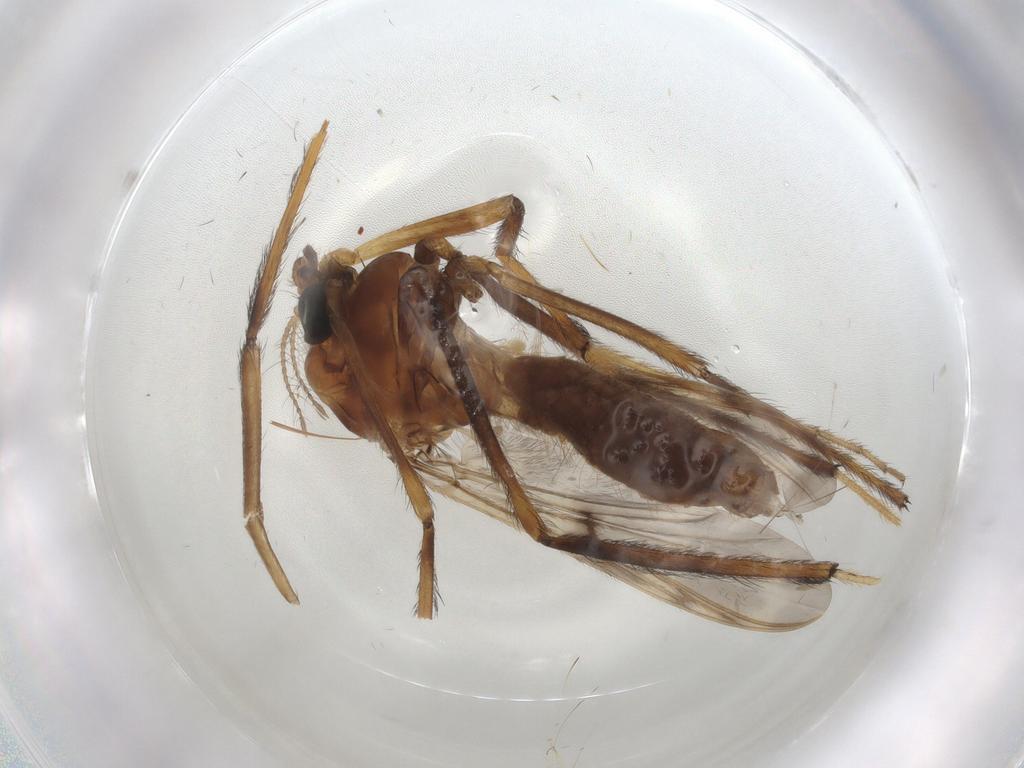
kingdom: Animalia
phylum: Arthropoda
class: Insecta
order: Diptera
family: Chironomidae
